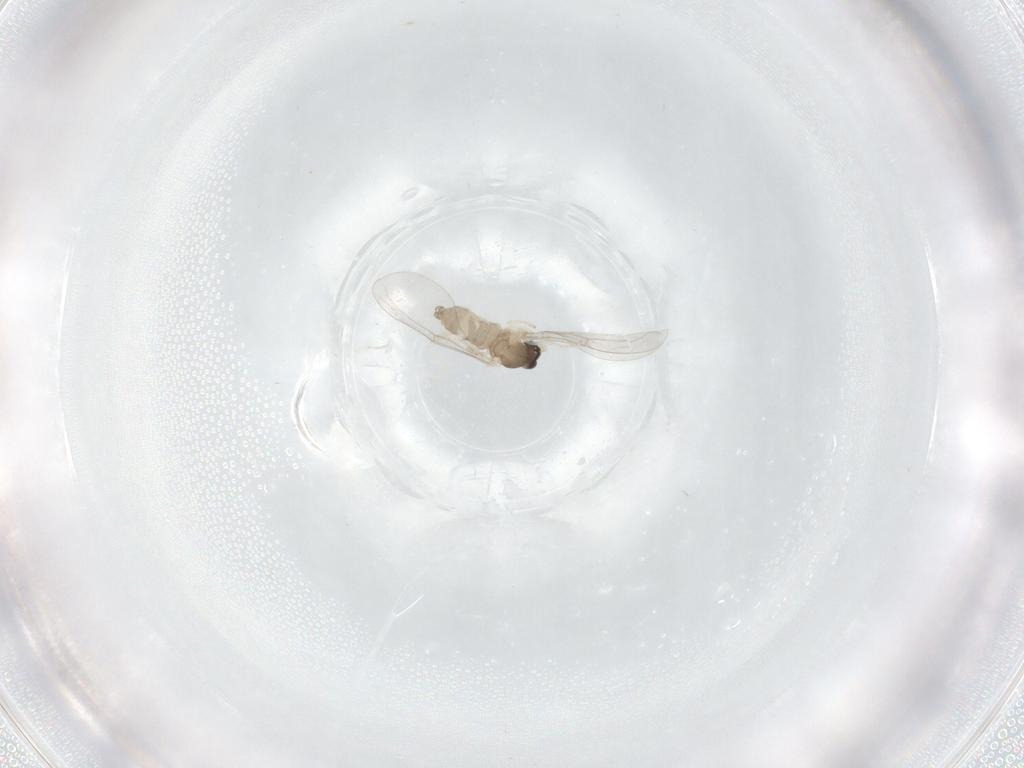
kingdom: Animalia
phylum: Arthropoda
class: Insecta
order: Diptera
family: Cecidomyiidae
